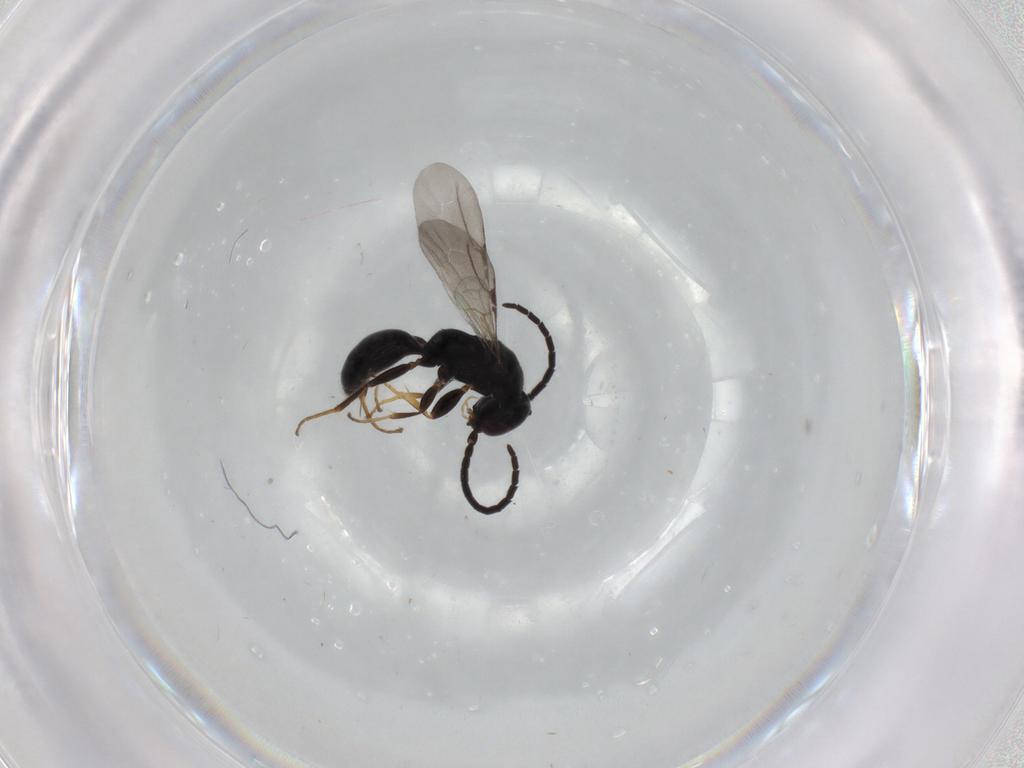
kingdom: Animalia
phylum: Arthropoda
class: Insecta
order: Hymenoptera
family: Bethylidae
